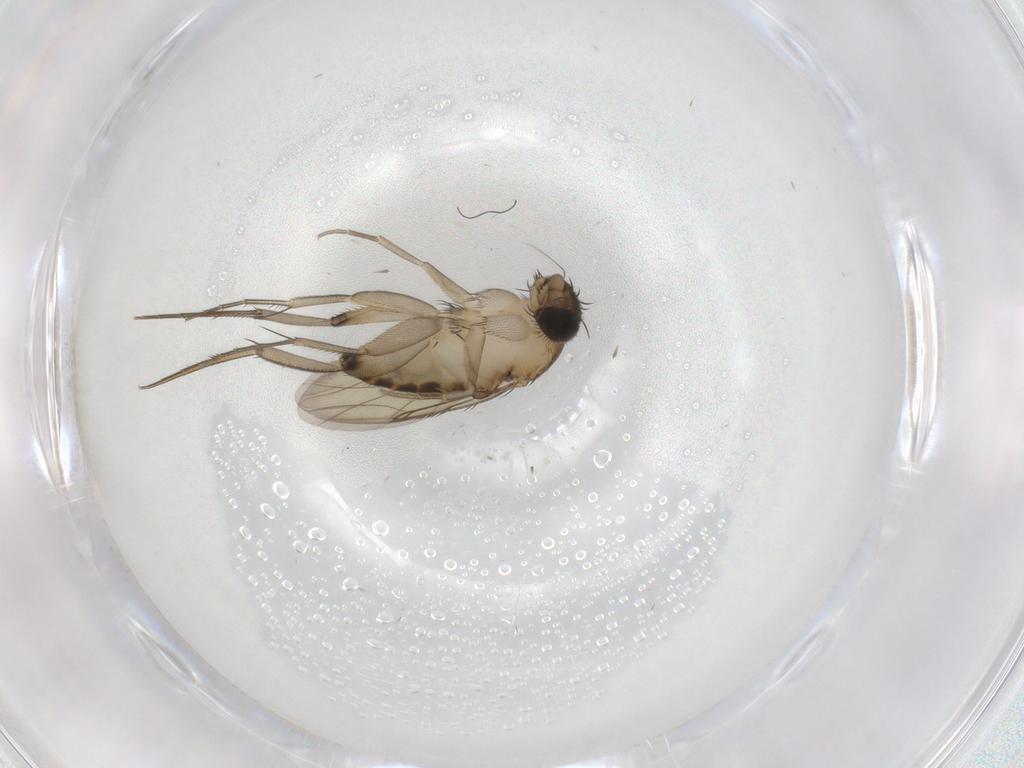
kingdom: Animalia
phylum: Arthropoda
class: Insecta
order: Diptera
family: Phoridae
